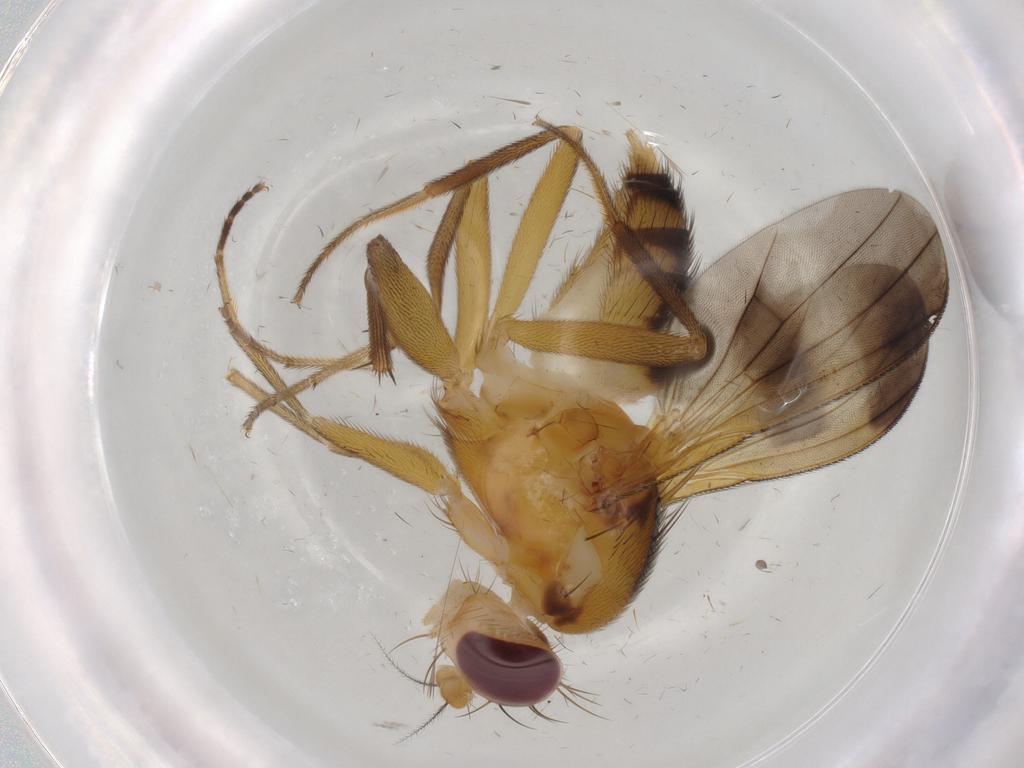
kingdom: Animalia
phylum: Arthropoda
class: Insecta
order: Diptera
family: Clusiidae
